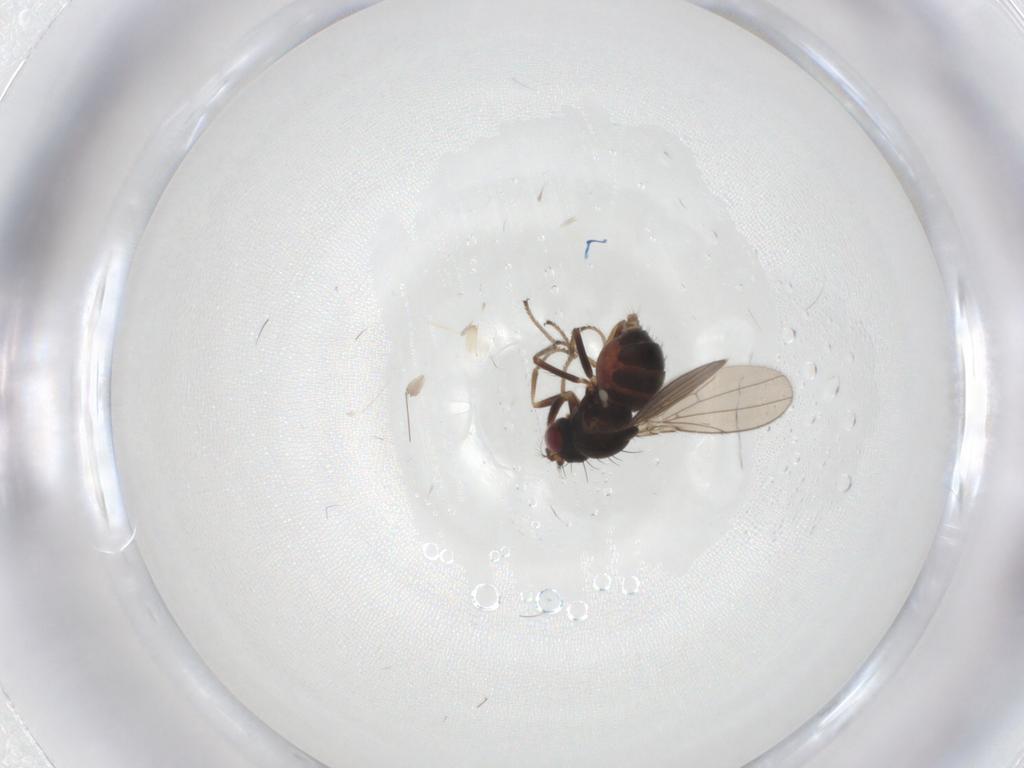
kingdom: Animalia
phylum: Arthropoda
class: Insecta
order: Diptera
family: Ephydridae
